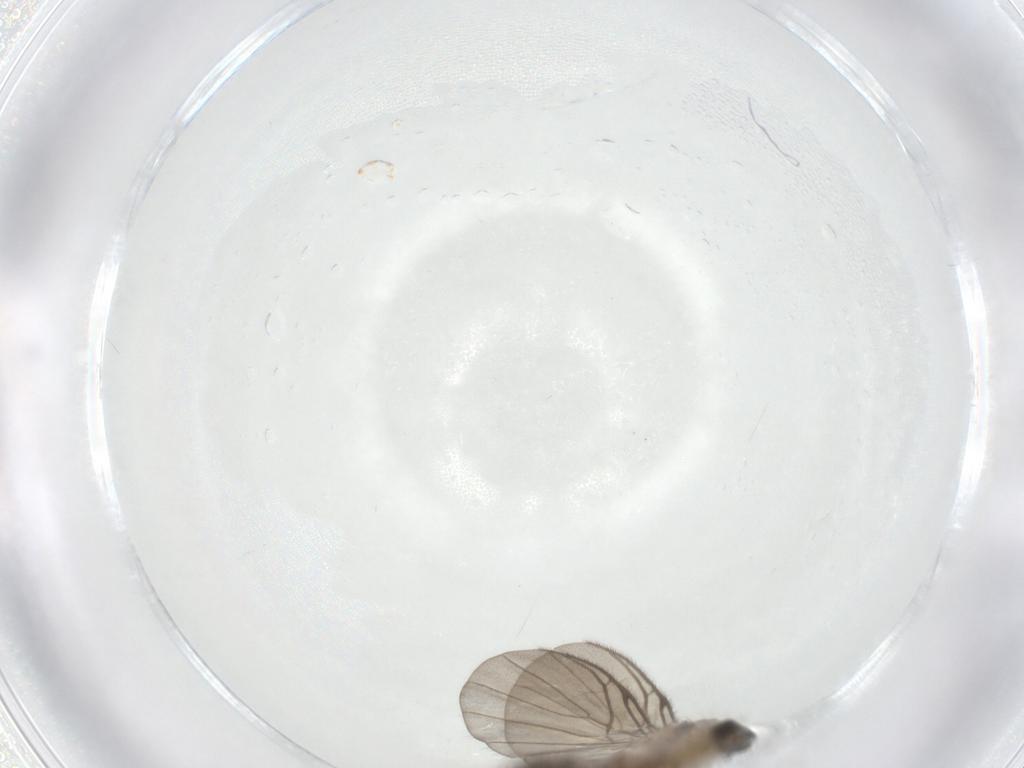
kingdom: Animalia
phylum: Arthropoda
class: Insecta
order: Diptera
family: Keroplatidae
